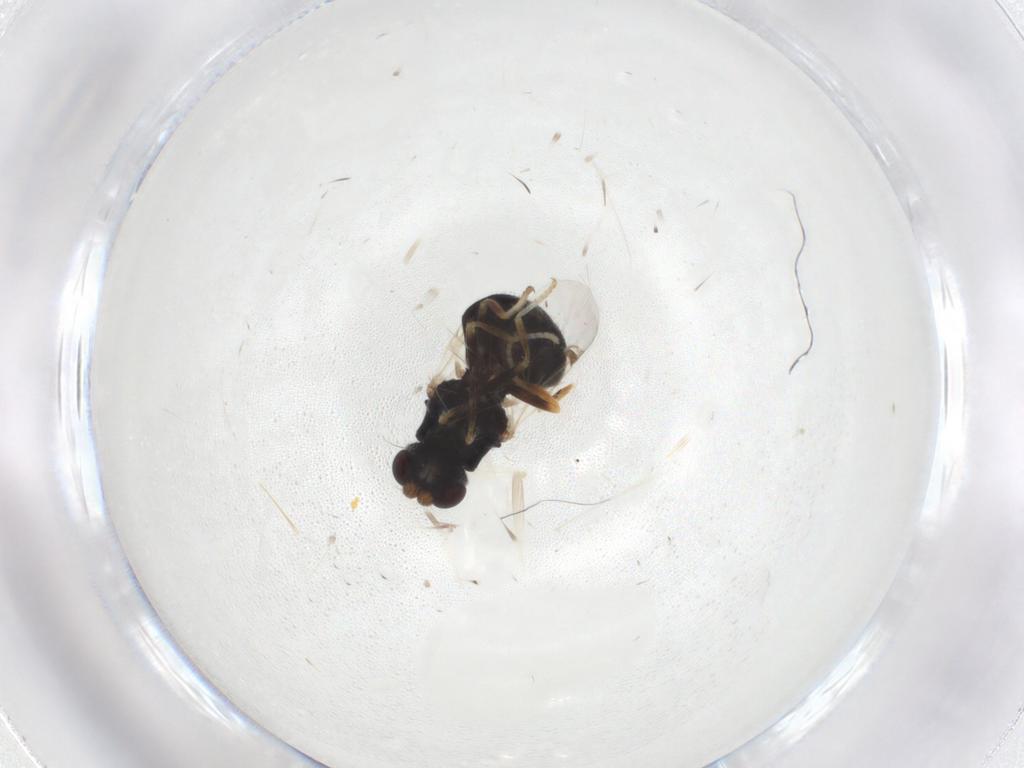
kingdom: Animalia
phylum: Arthropoda
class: Insecta
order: Diptera
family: Stratiomyidae
